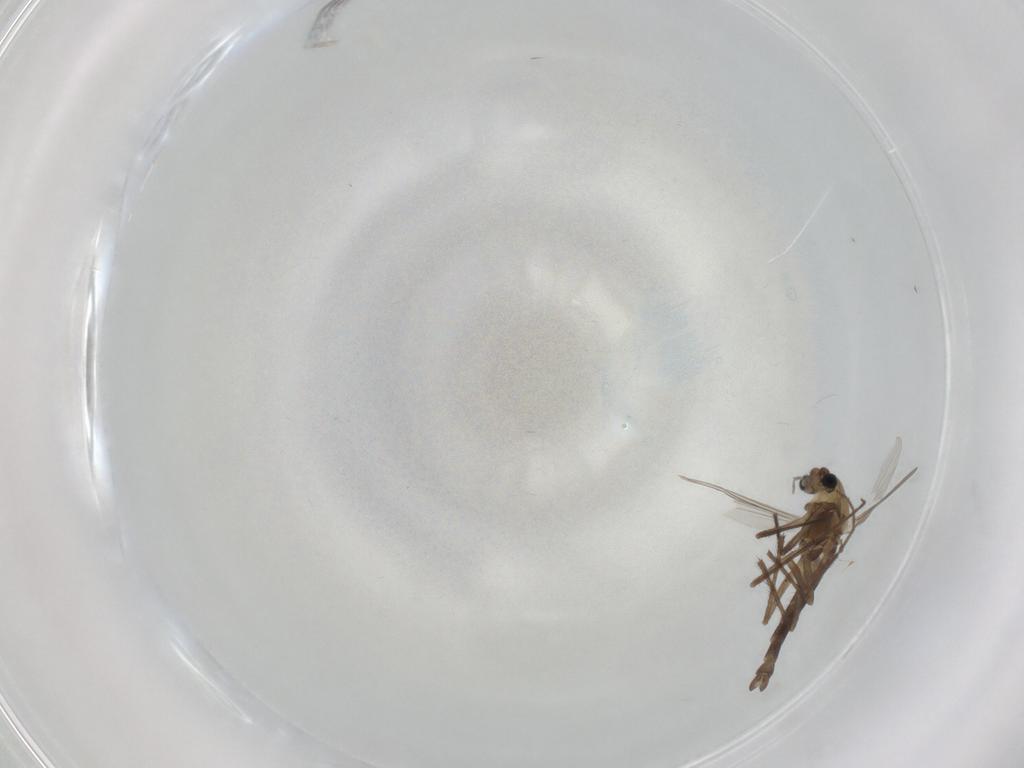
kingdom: Animalia
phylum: Arthropoda
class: Insecta
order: Diptera
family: Chironomidae
